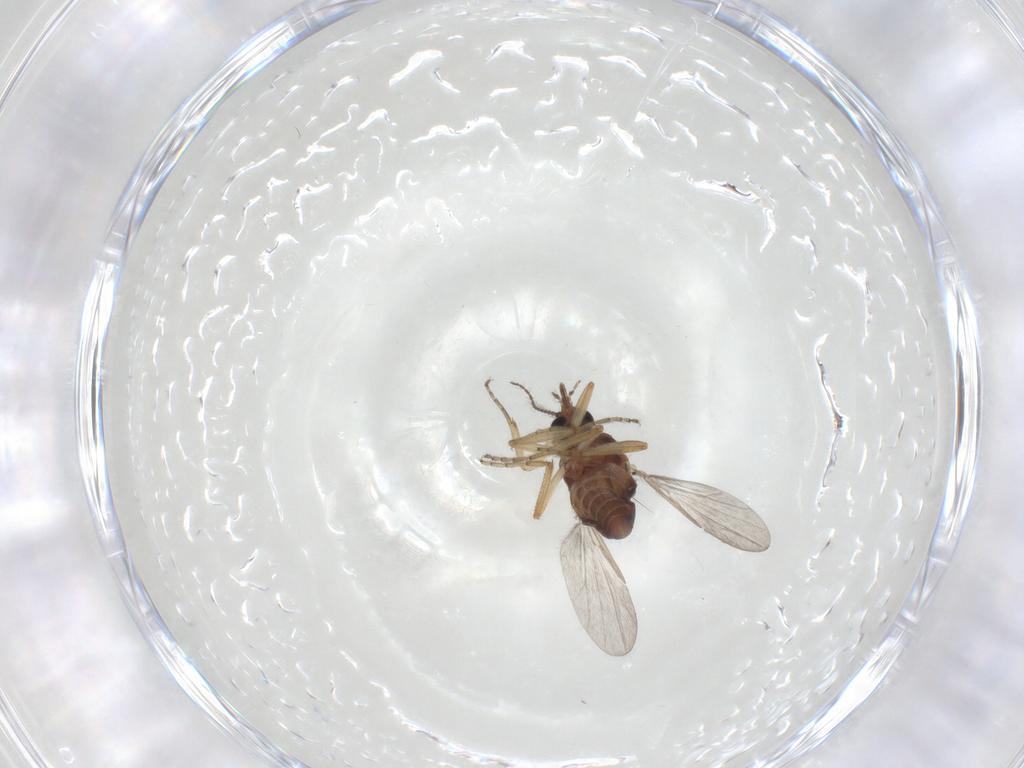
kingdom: Animalia
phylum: Arthropoda
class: Insecta
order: Diptera
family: Ceratopogonidae
